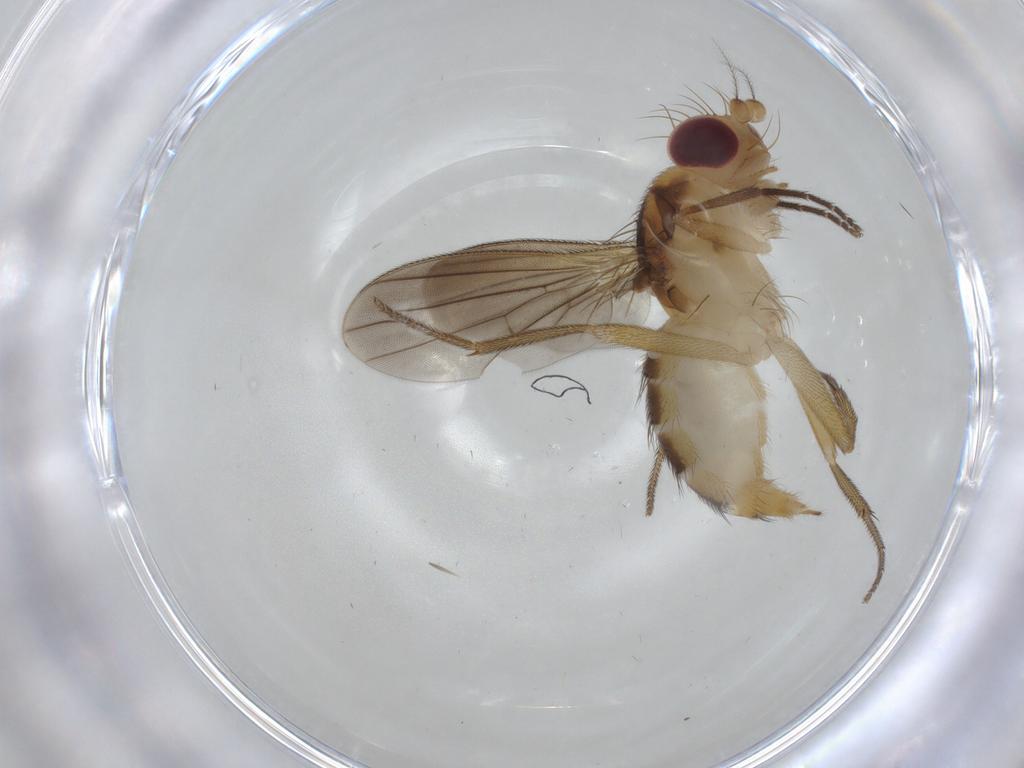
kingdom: Animalia
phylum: Arthropoda
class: Insecta
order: Diptera
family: Clusiidae
